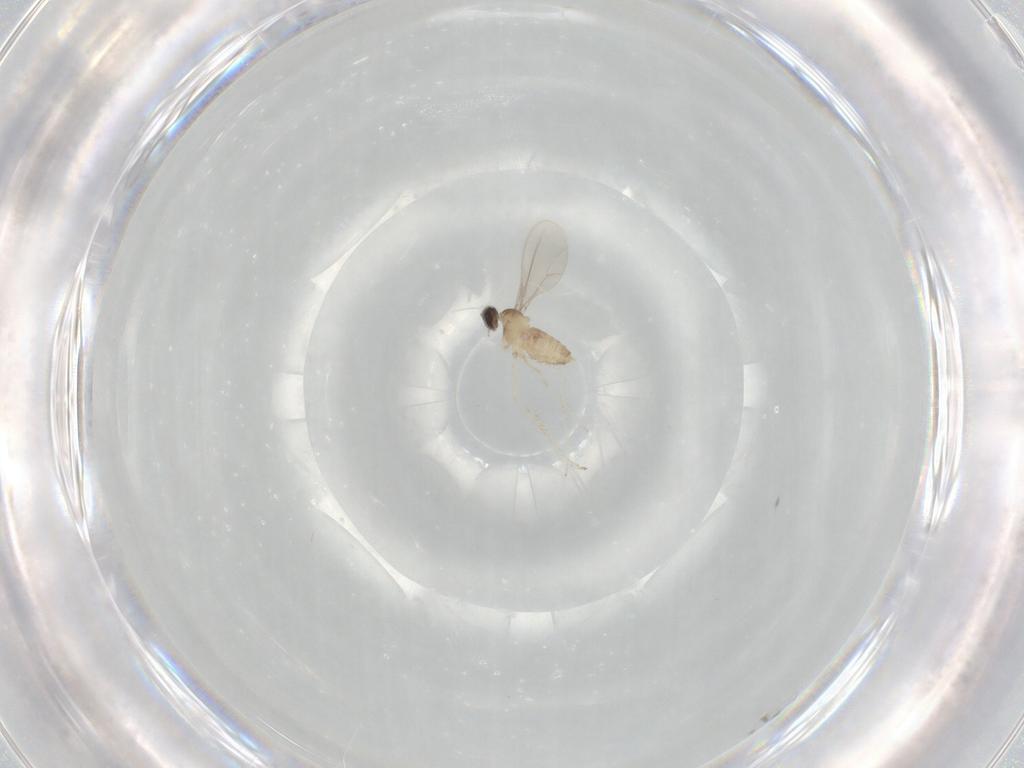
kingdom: Animalia
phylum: Arthropoda
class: Insecta
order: Diptera
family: Cecidomyiidae
